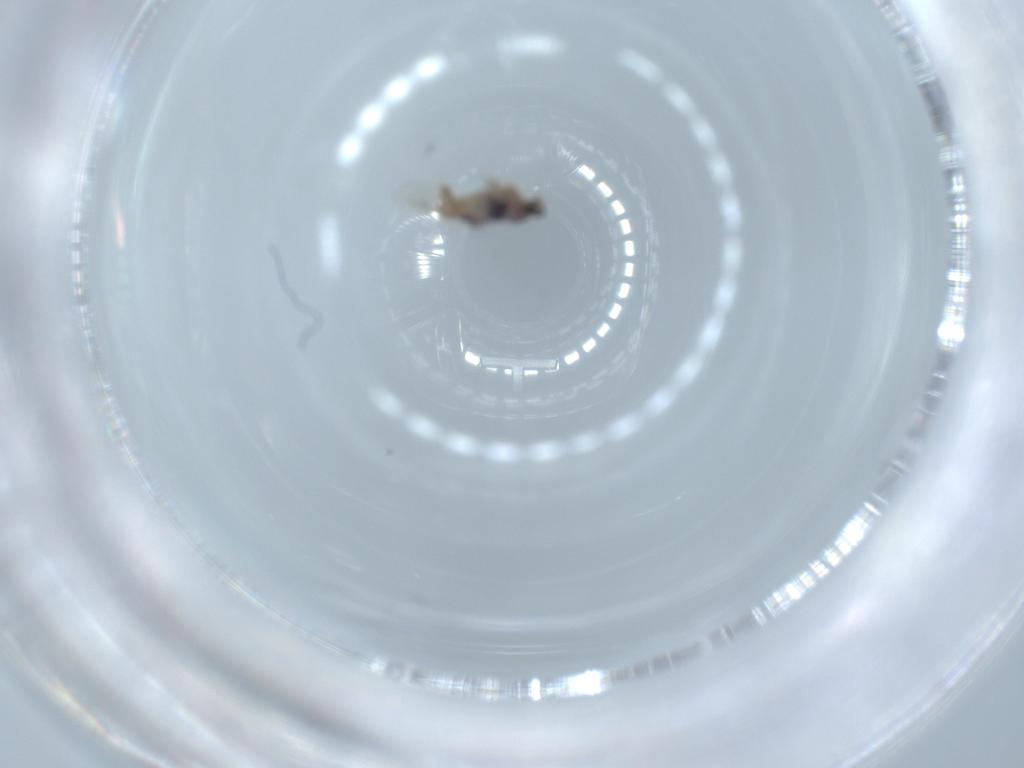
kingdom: Animalia
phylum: Arthropoda
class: Insecta
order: Diptera
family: Cecidomyiidae
